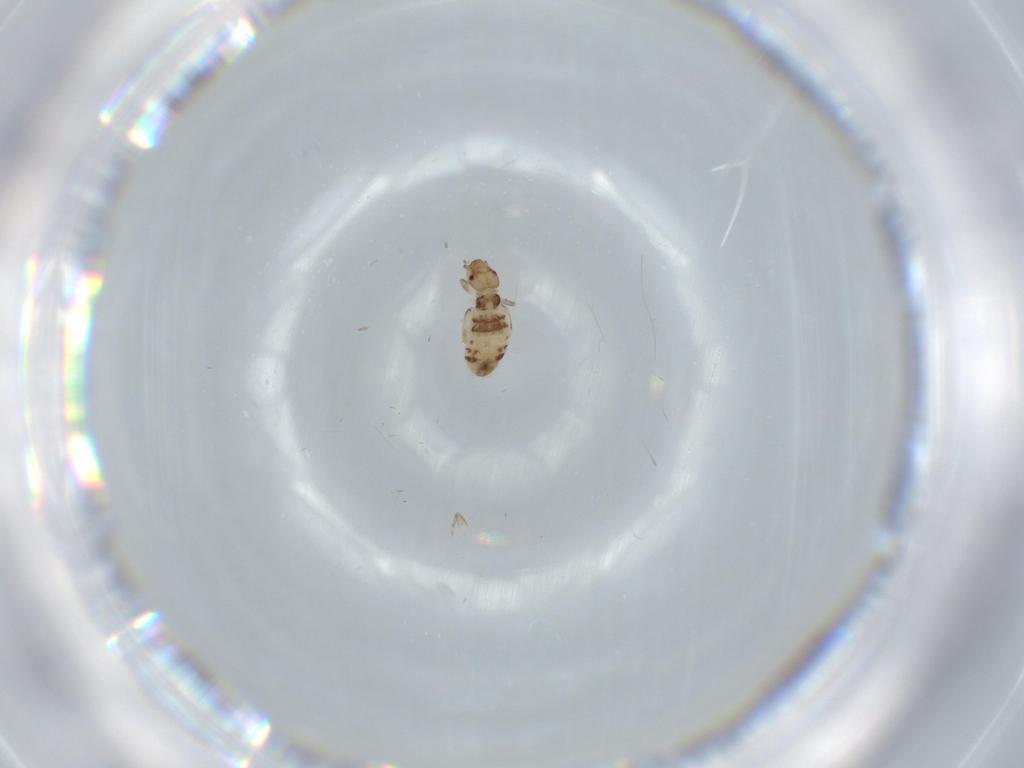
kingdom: Animalia
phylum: Arthropoda
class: Insecta
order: Psocodea
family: Liposcelididae
